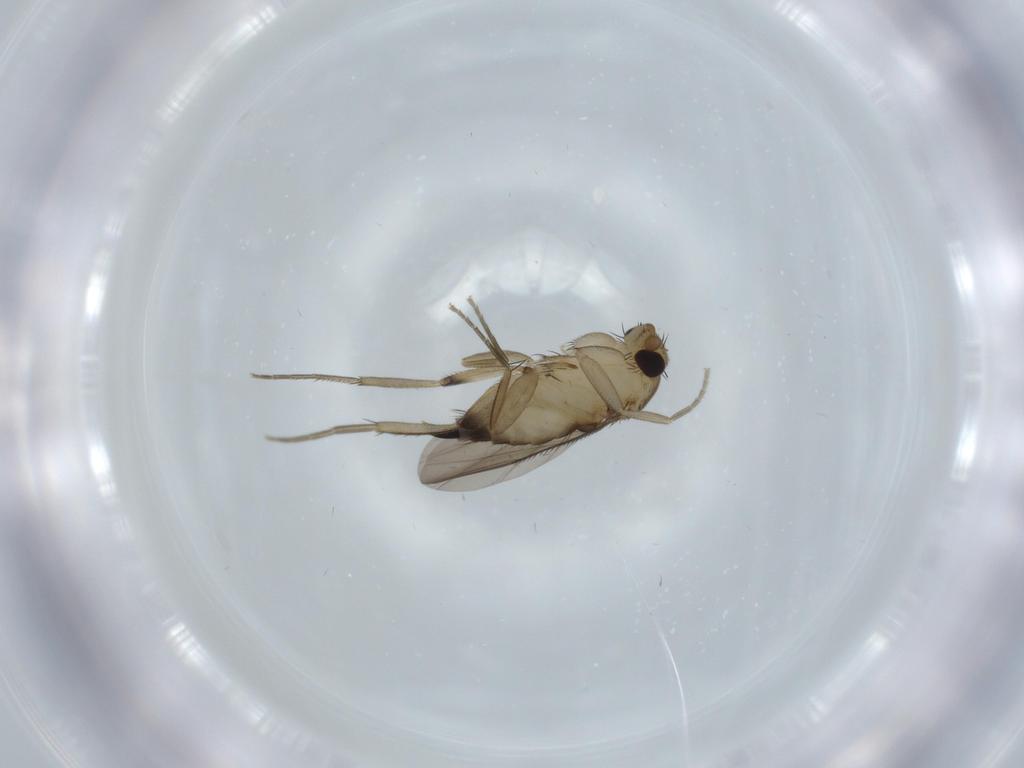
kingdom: Animalia
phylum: Arthropoda
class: Insecta
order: Diptera
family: Phoridae
